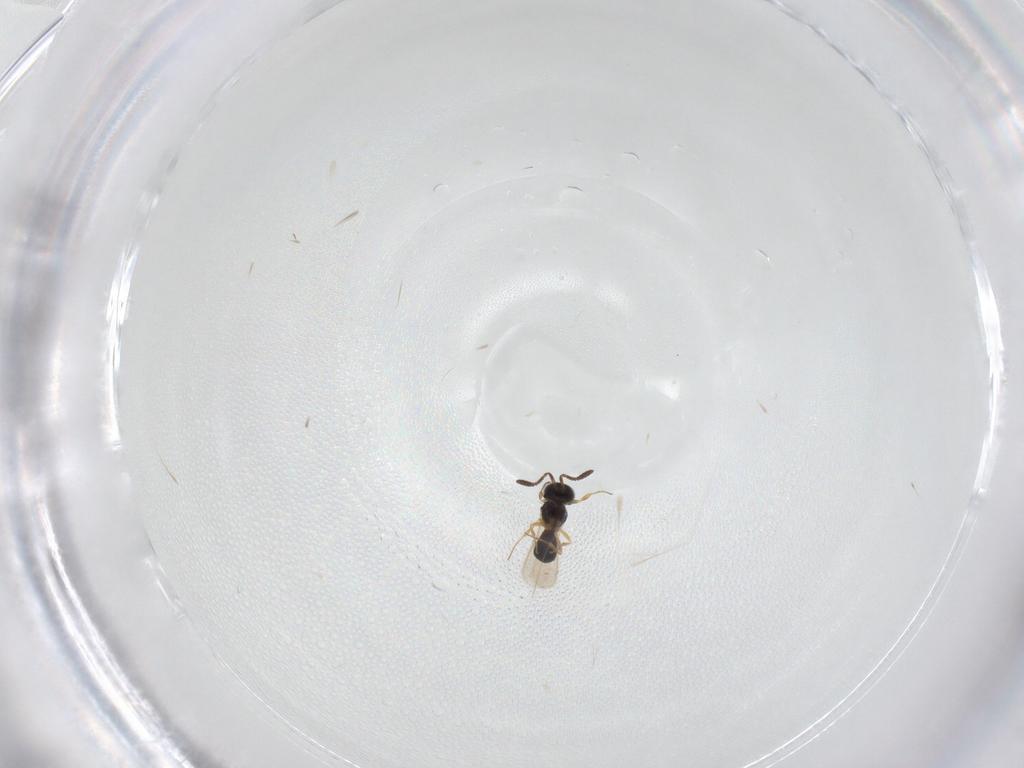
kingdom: Animalia
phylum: Arthropoda
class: Insecta
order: Hymenoptera
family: Scelionidae
